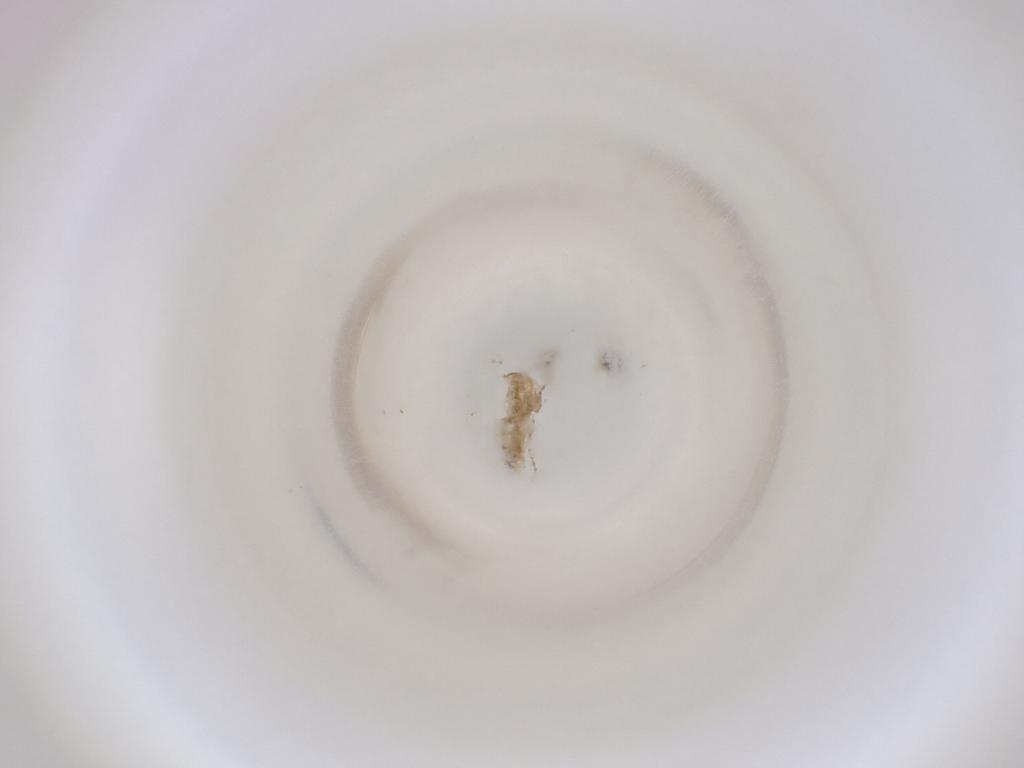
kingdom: Animalia
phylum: Arthropoda
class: Insecta
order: Diptera
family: Cecidomyiidae
